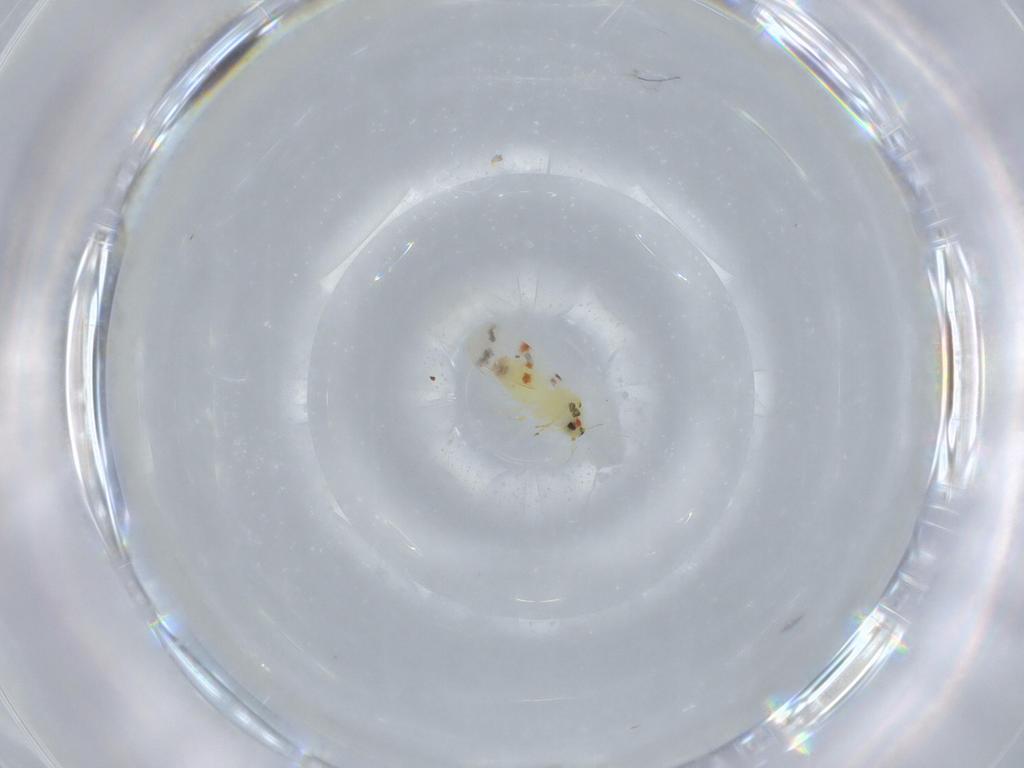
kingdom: Animalia
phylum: Arthropoda
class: Insecta
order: Hemiptera
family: Aleyrodidae
